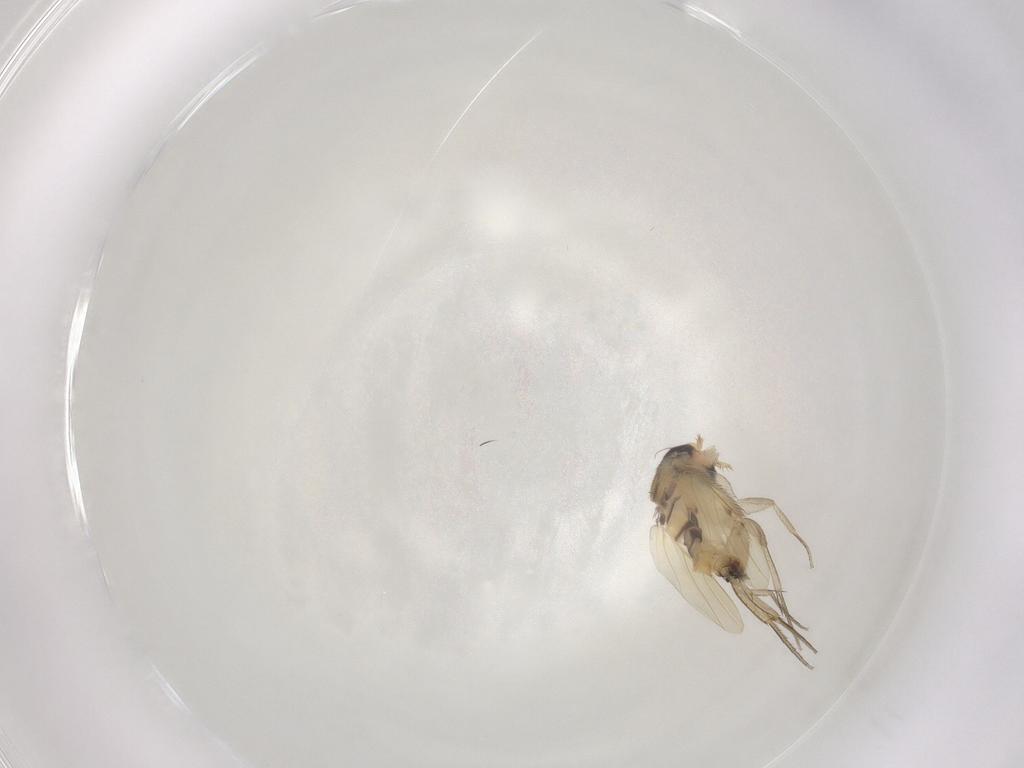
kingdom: Animalia
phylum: Arthropoda
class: Insecta
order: Diptera
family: Phoridae
